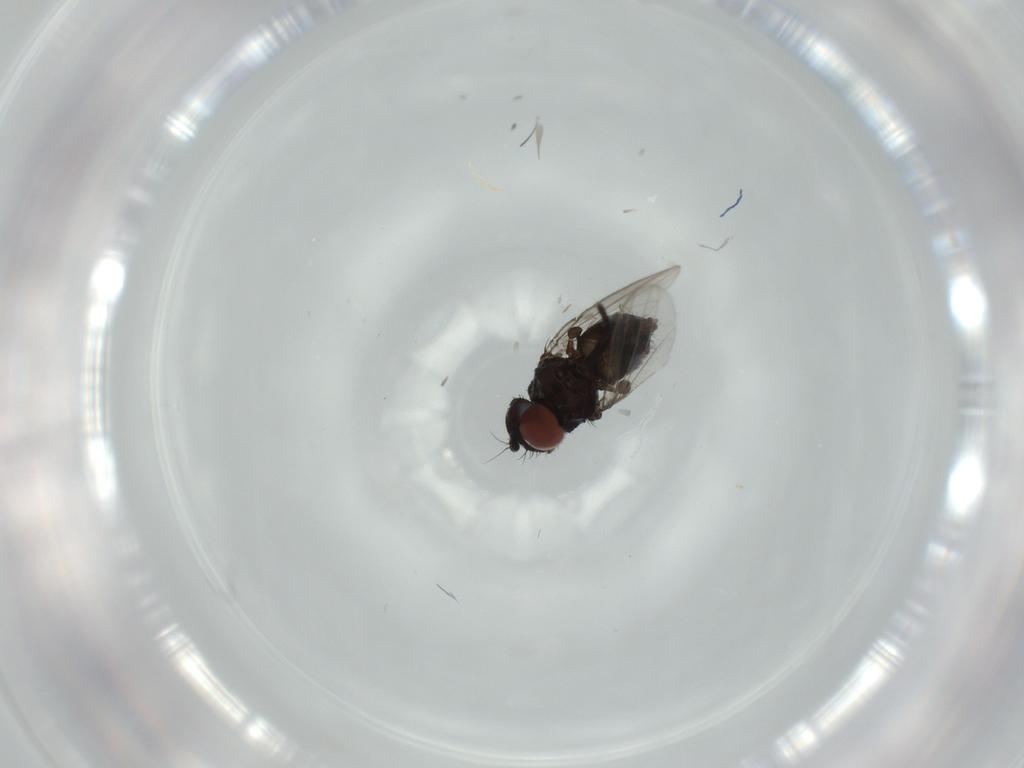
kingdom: Animalia
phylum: Arthropoda
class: Insecta
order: Diptera
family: Milichiidae
